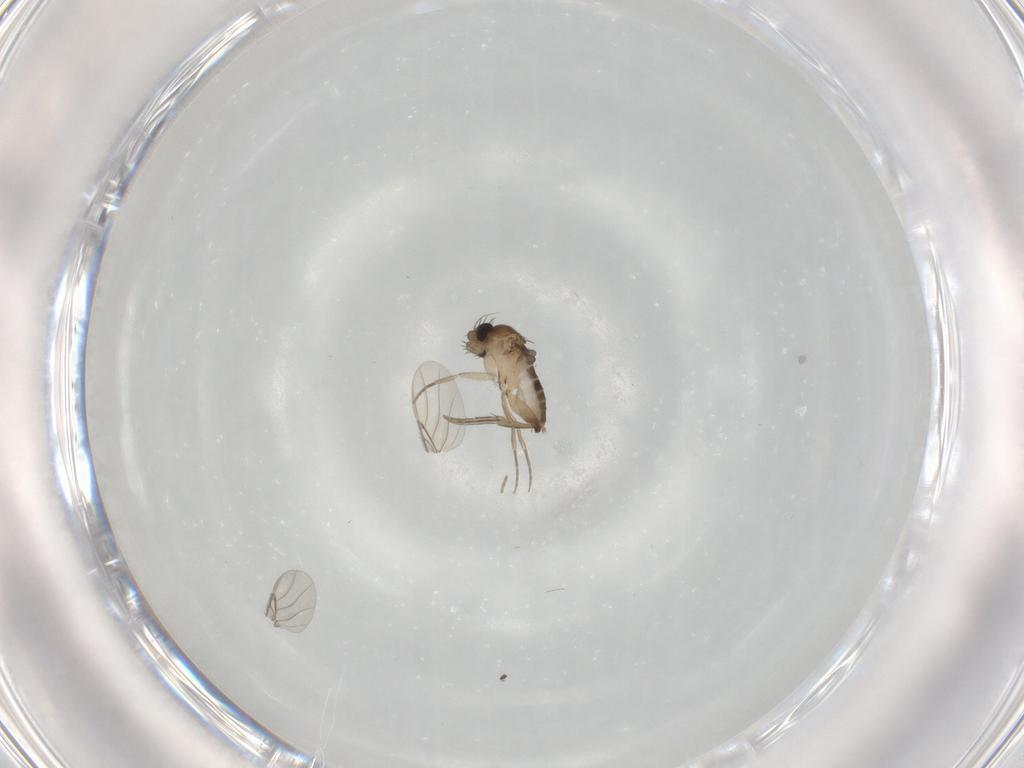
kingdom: Animalia
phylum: Arthropoda
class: Insecta
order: Diptera
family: Phoridae
